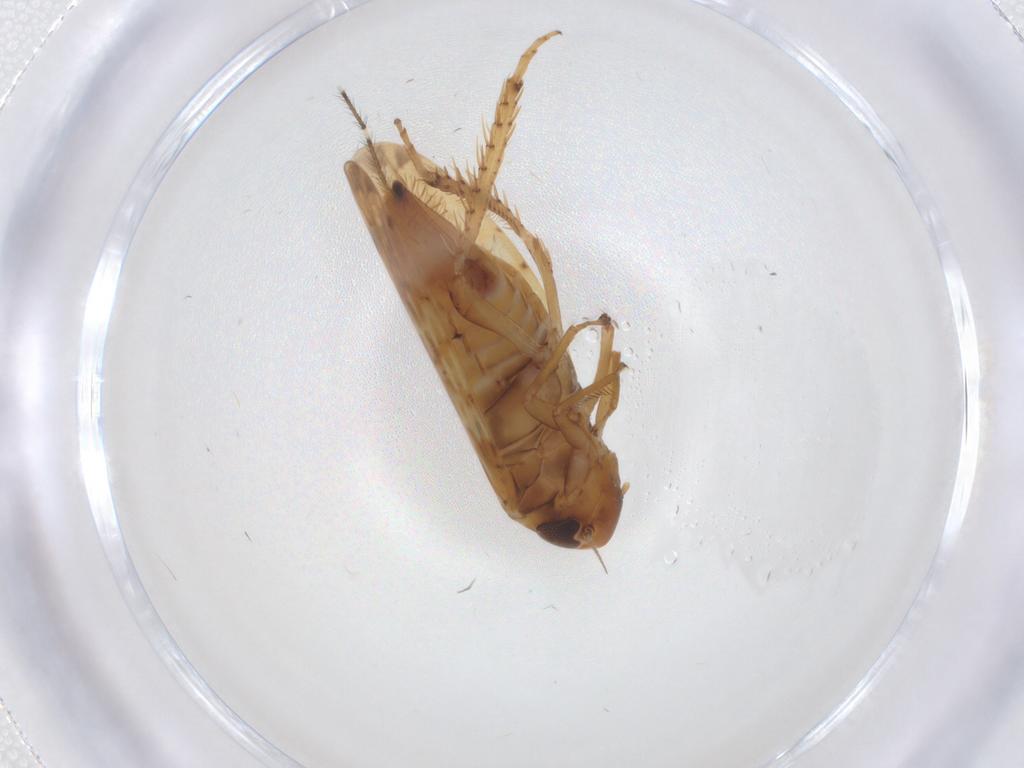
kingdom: Animalia
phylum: Arthropoda
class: Insecta
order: Hemiptera
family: Cicadellidae
